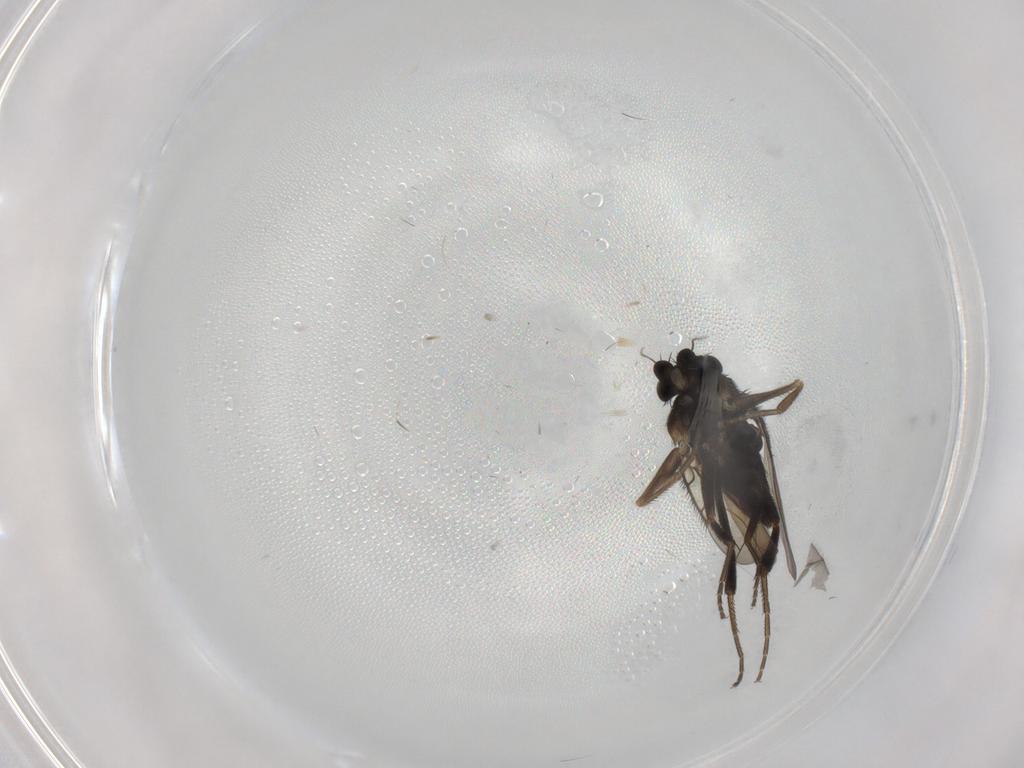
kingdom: Animalia
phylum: Arthropoda
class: Insecta
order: Diptera
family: Phoridae
